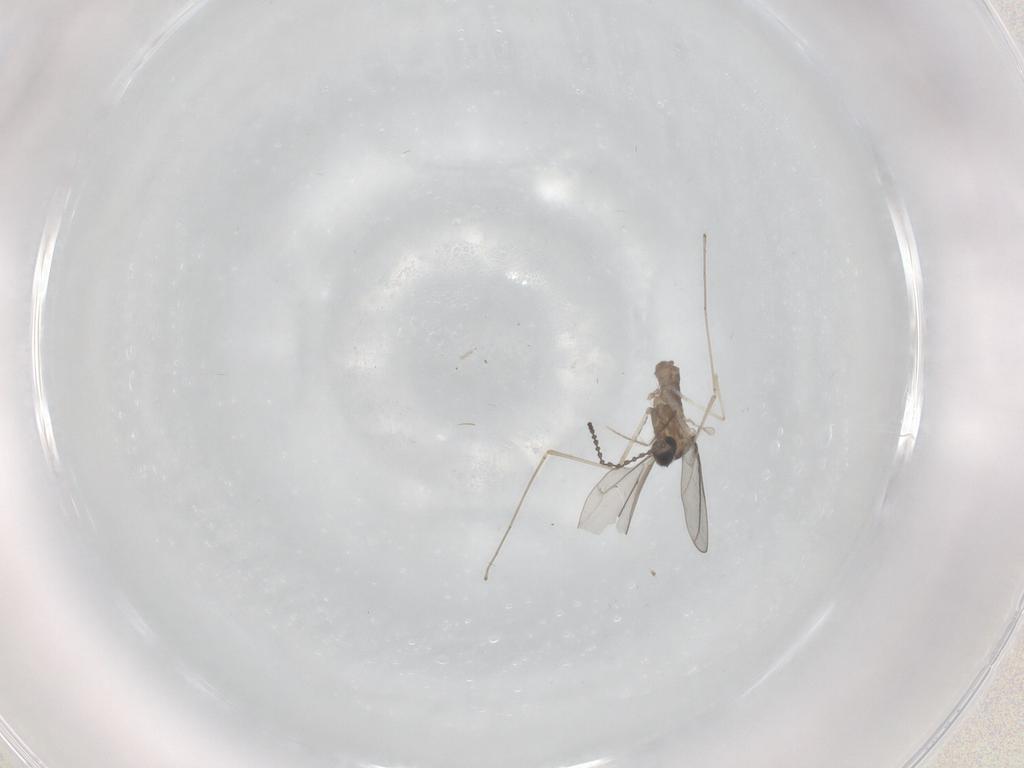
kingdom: Animalia
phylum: Arthropoda
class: Insecta
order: Diptera
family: Cecidomyiidae
